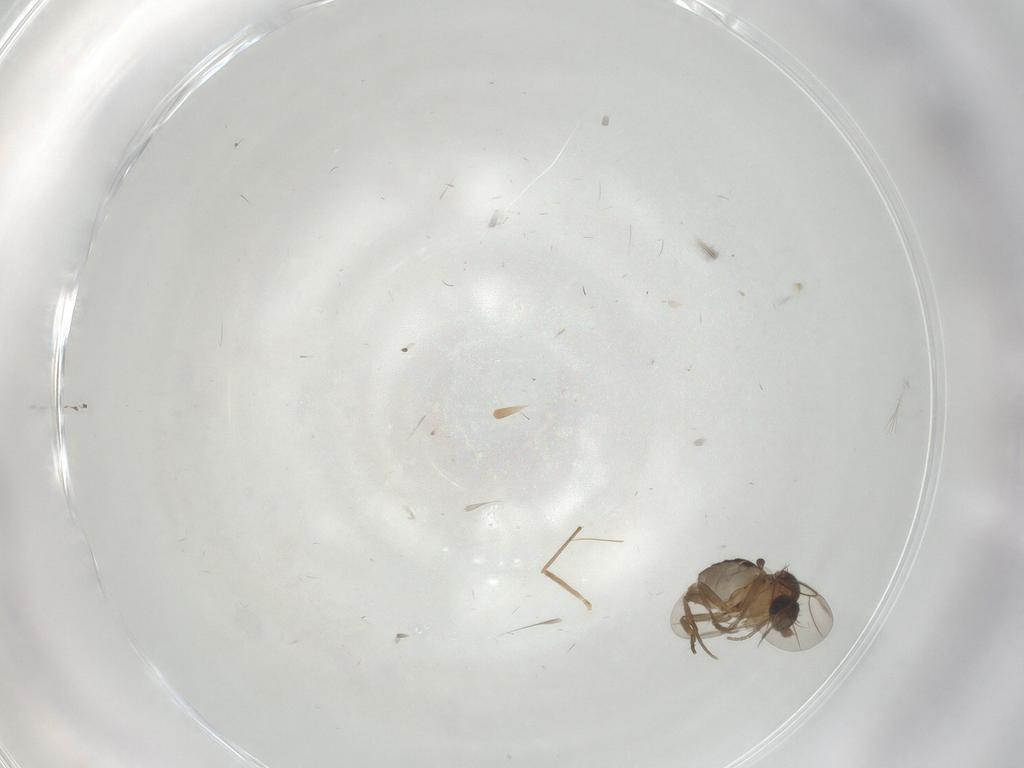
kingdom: Animalia
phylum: Arthropoda
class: Insecta
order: Diptera
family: Phoridae
